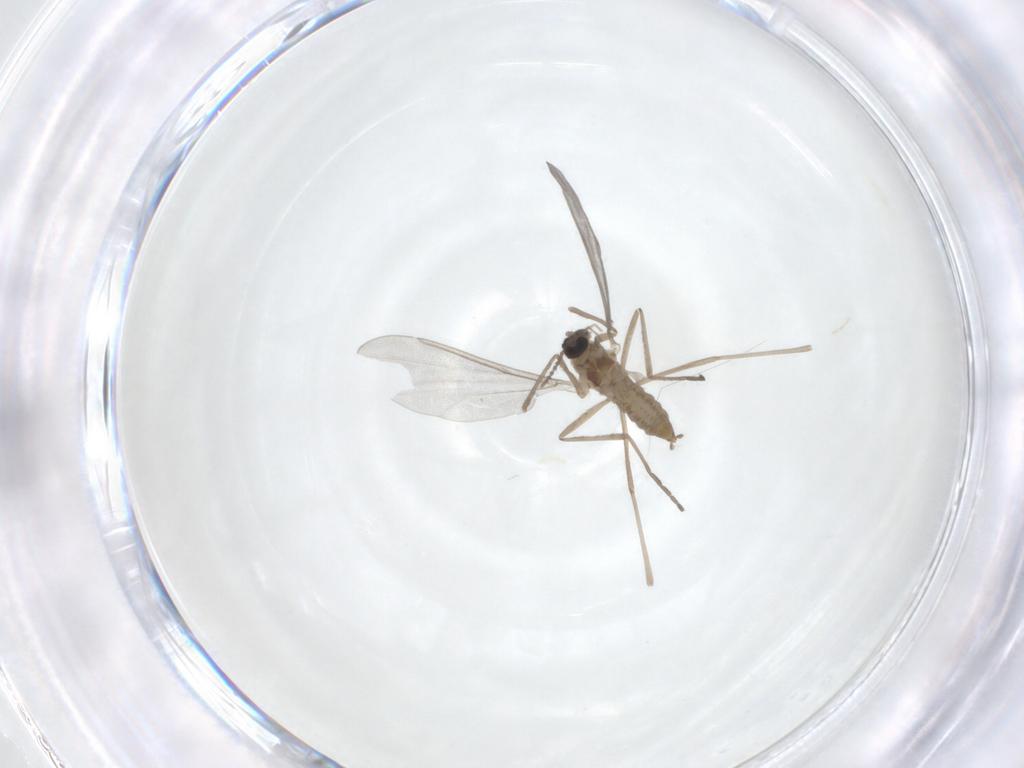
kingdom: Animalia
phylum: Arthropoda
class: Insecta
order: Diptera
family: Cecidomyiidae
